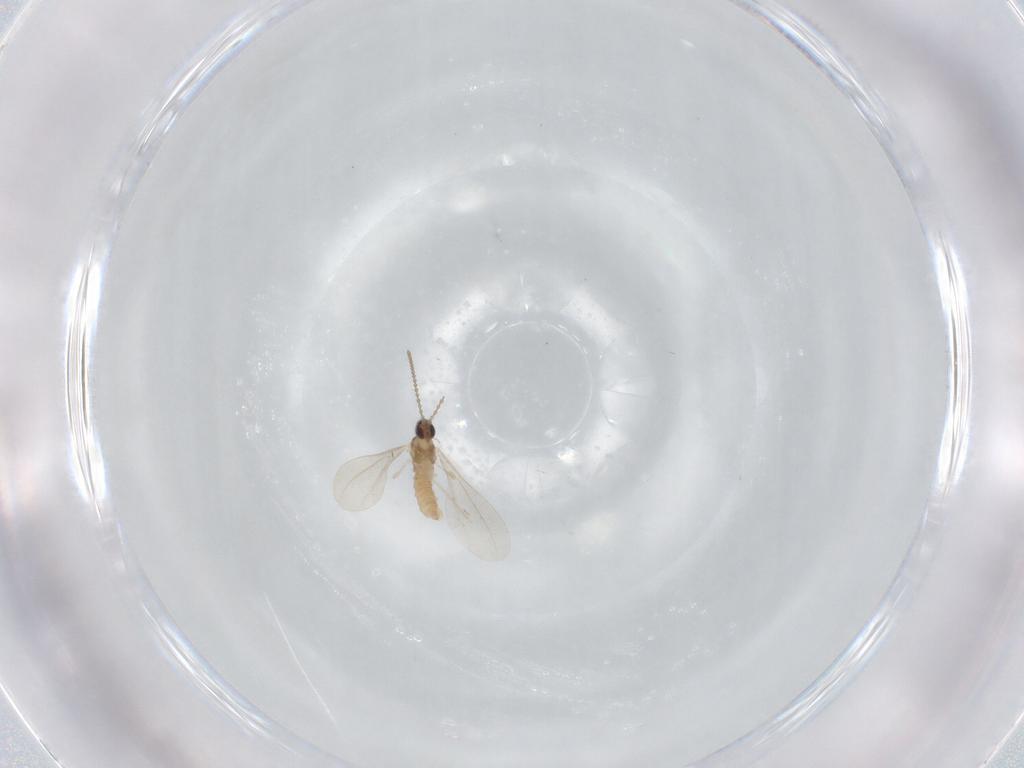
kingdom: Animalia
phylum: Arthropoda
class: Insecta
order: Diptera
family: Cecidomyiidae
